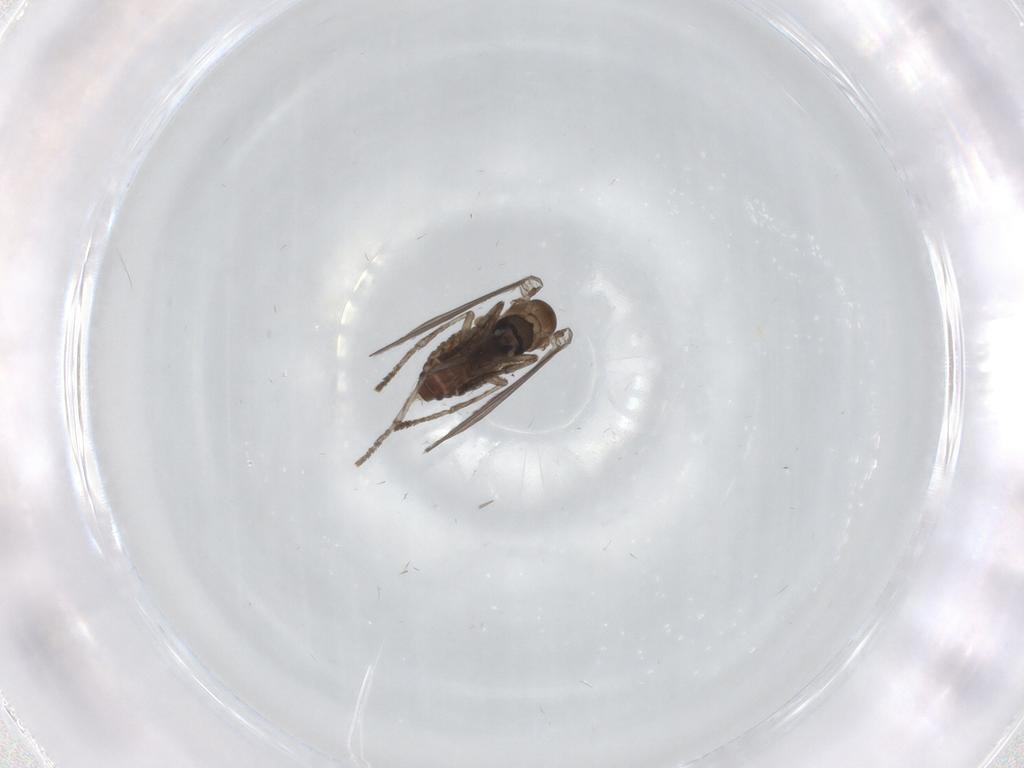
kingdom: Animalia
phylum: Arthropoda
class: Insecta
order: Diptera
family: Psychodidae
